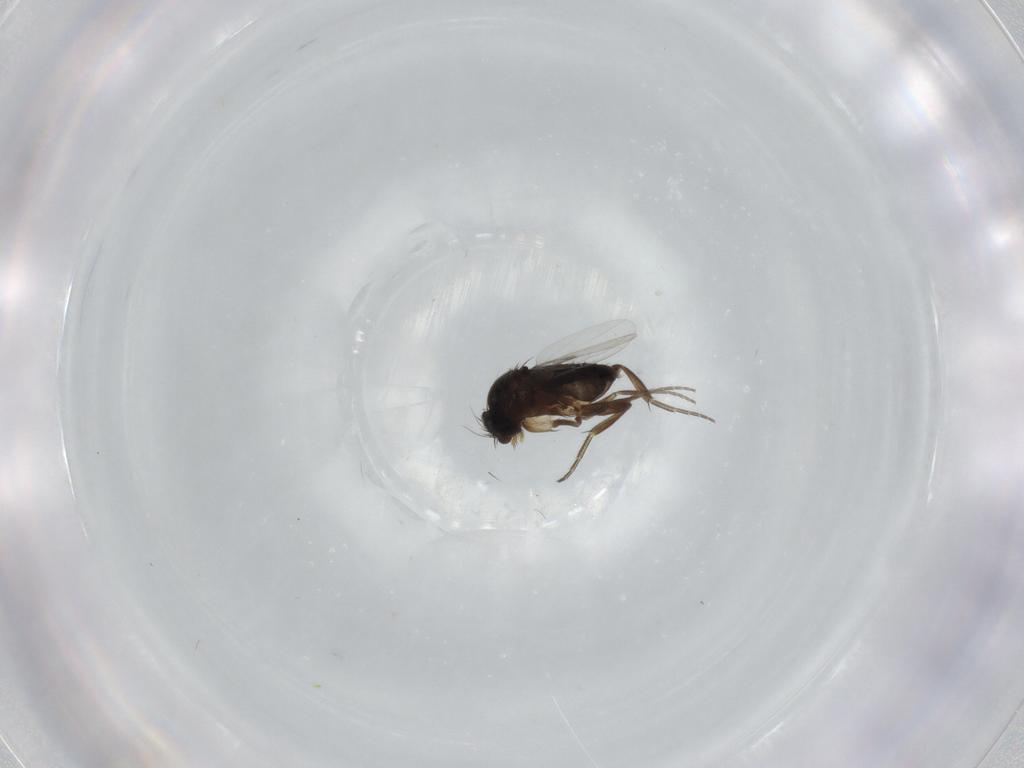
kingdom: Animalia
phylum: Arthropoda
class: Insecta
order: Diptera
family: Phoridae
